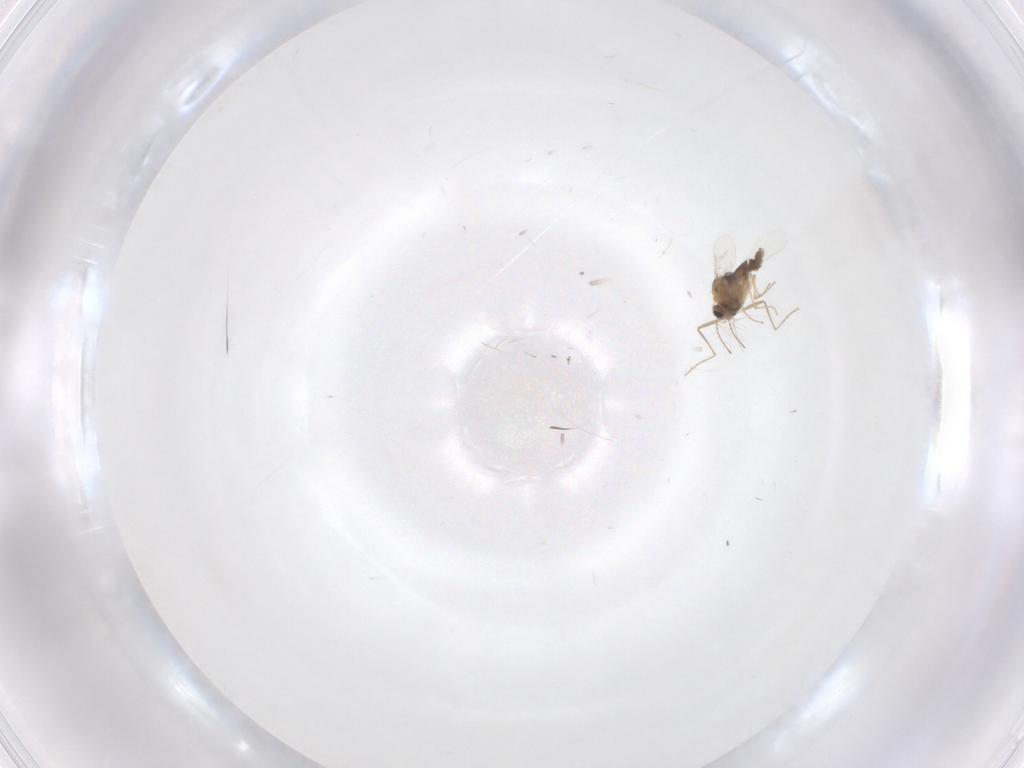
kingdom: Animalia
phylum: Arthropoda
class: Insecta
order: Diptera
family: Chironomidae
